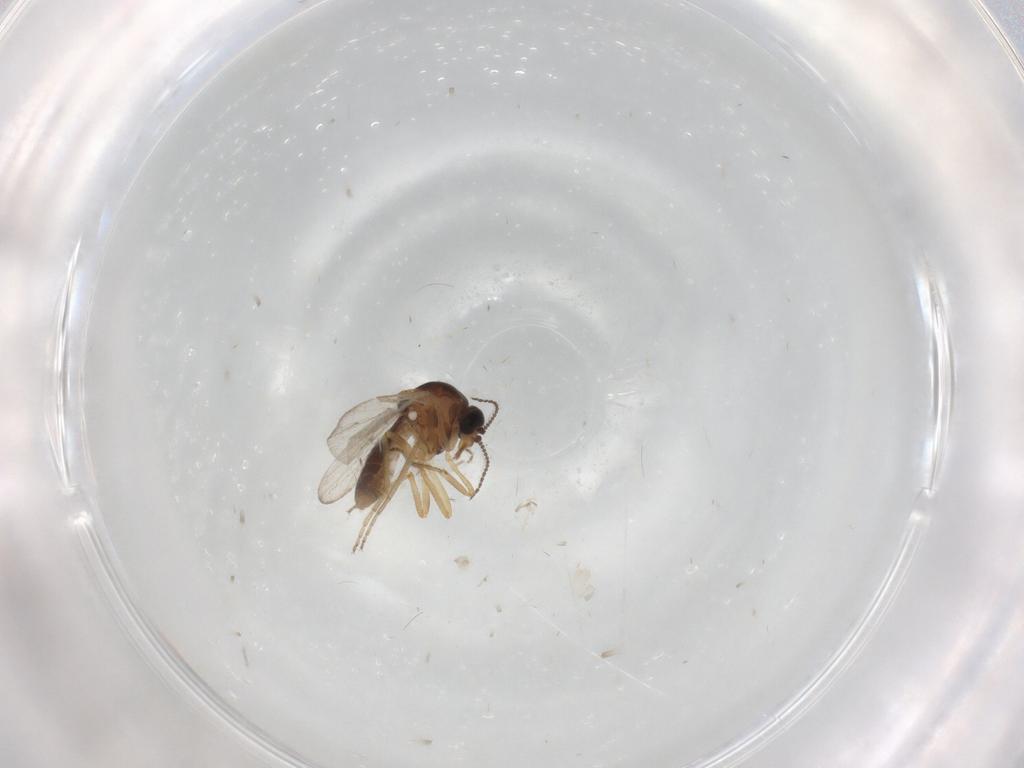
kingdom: Animalia
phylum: Arthropoda
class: Insecta
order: Diptera
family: Ceratopogonidae
